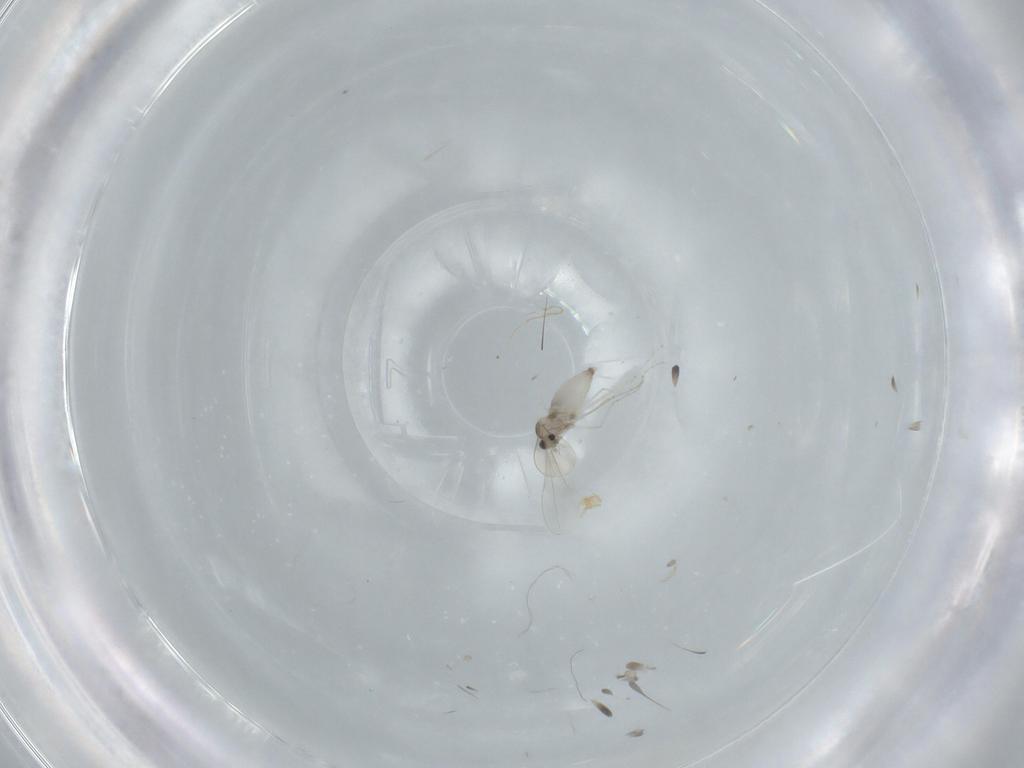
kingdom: Animalia
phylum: Arthropoda
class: Insecta
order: Diptera
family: Cecidomyiidae
